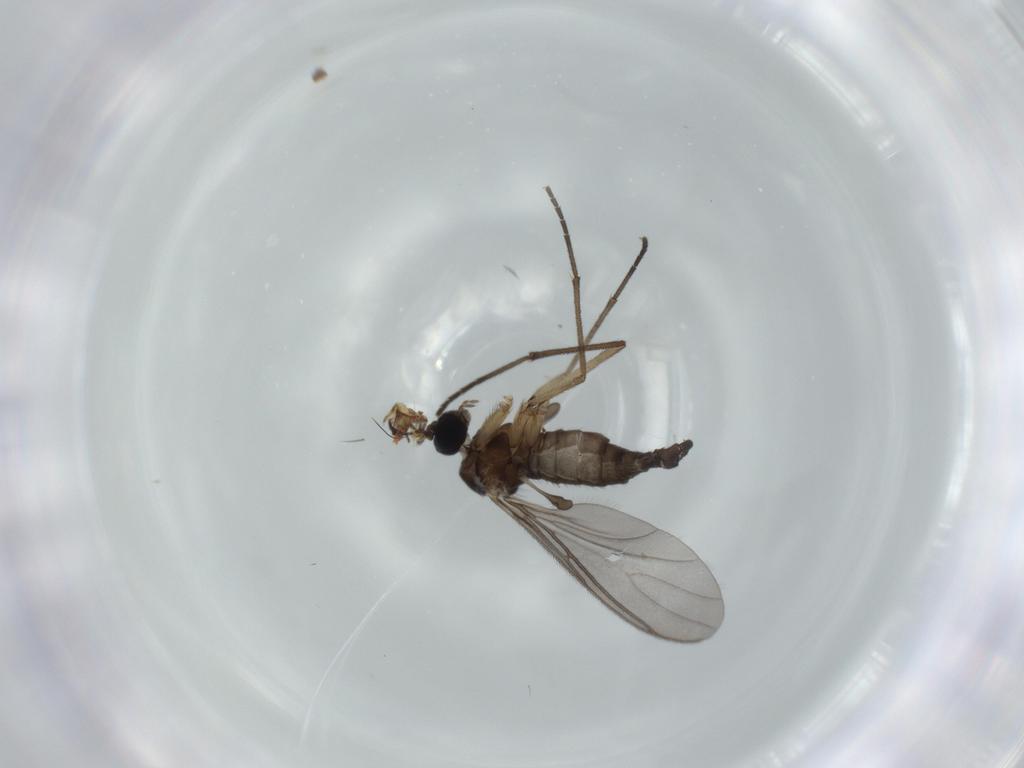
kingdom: Animalia
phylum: Arthropoda
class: Insecta
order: Diptera
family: Sciaridae
